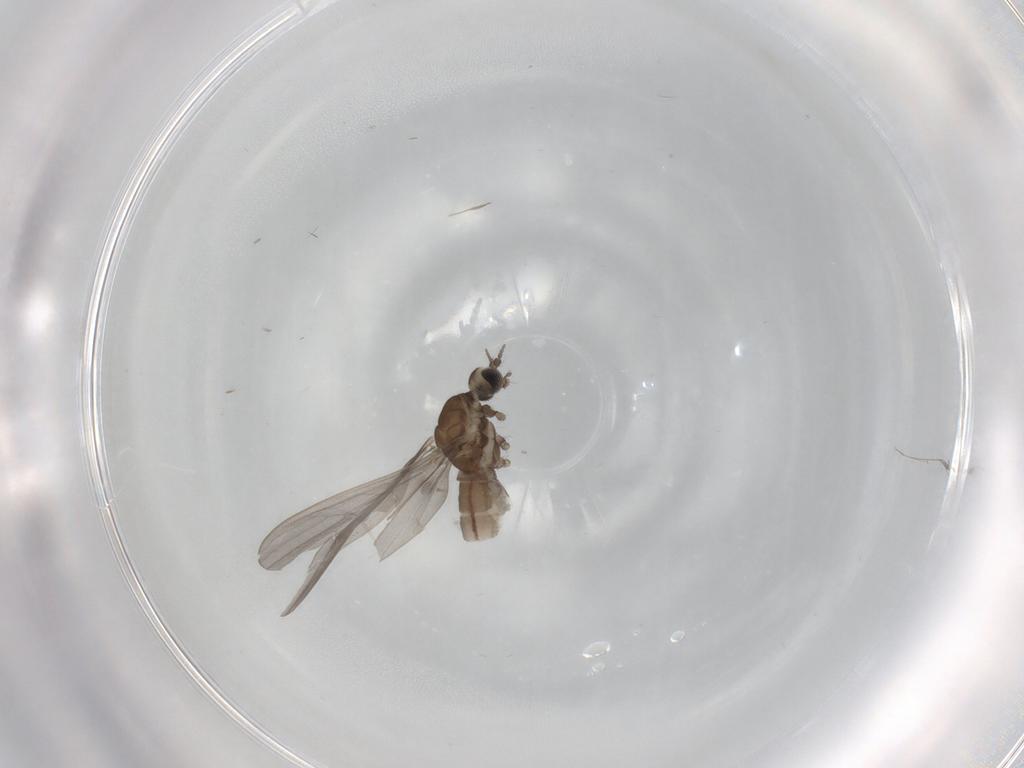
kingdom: Animalia
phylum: Arthropoda
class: Insecta
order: Diptera
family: Limoniidae
